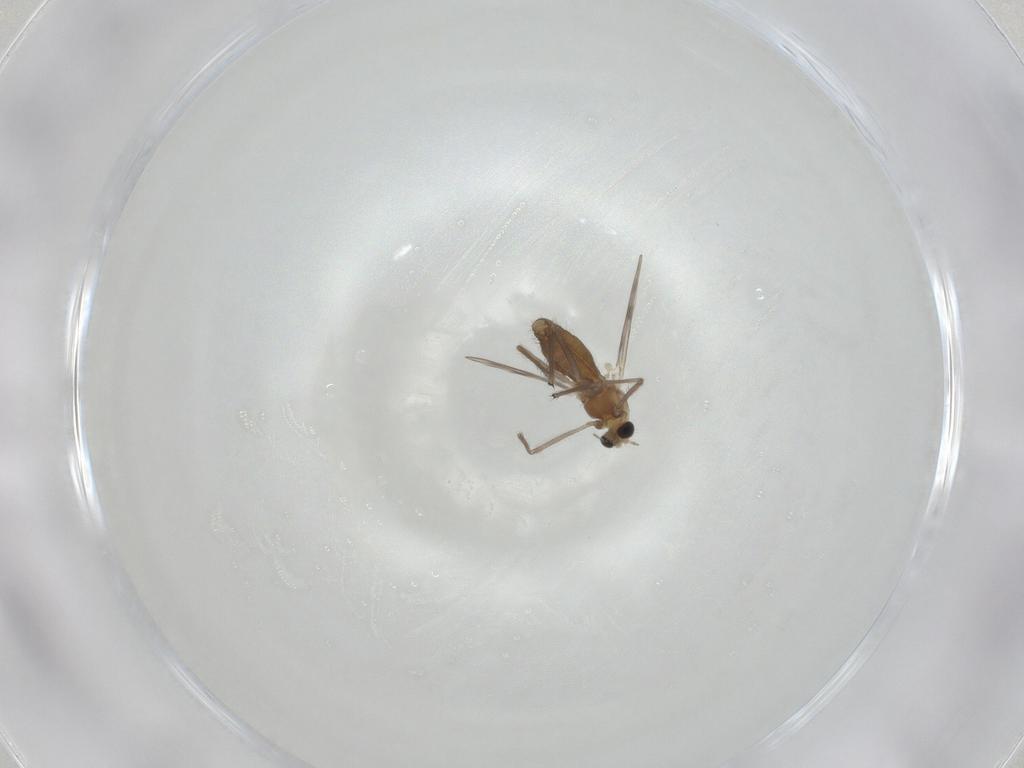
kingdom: Animalia
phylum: Arthropoda
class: Insecta
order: Diptera
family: Chironomidae
